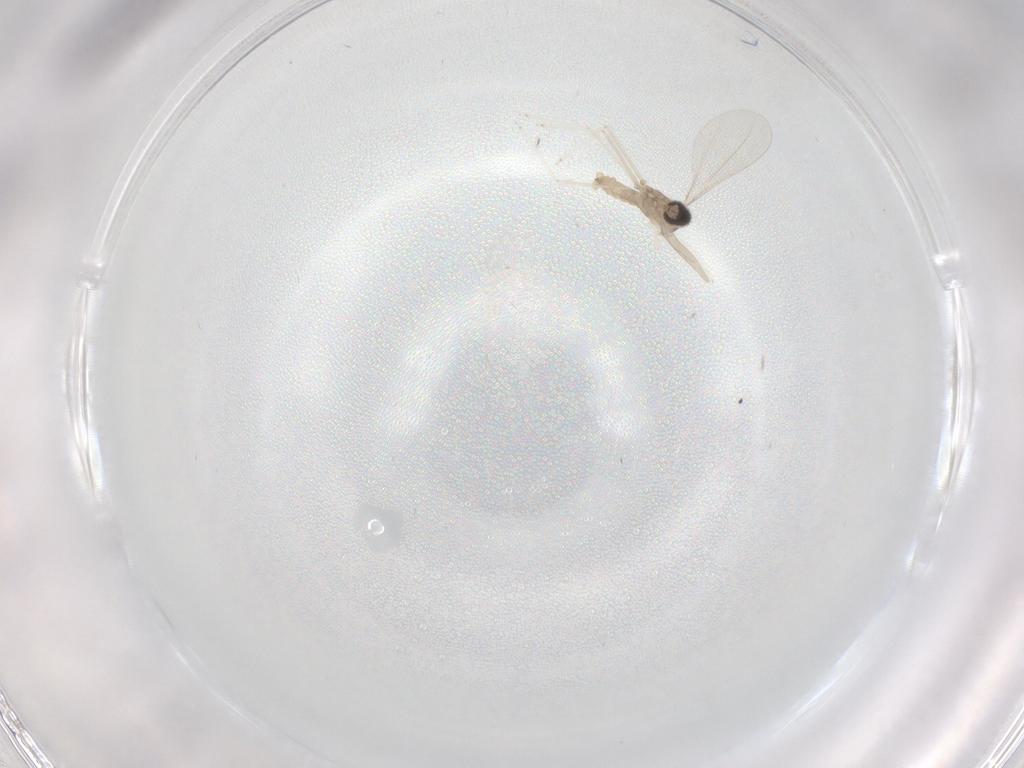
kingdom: Animalia
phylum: Arthropoda
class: Insecta
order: Diptera
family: Cecidomyiidae
